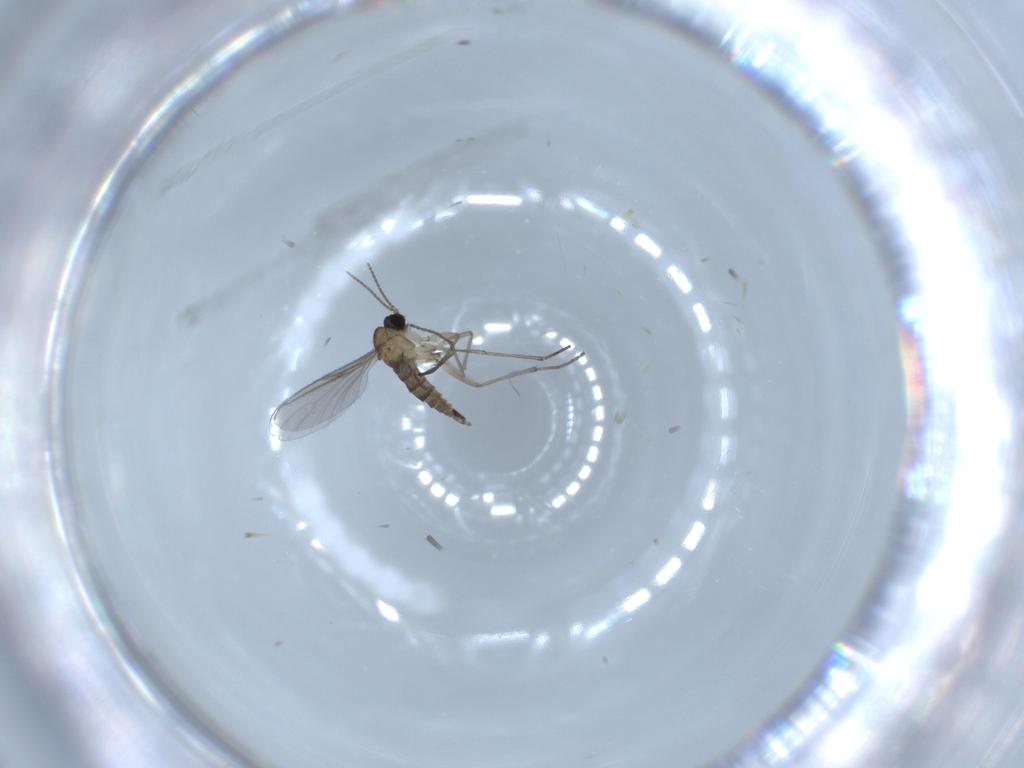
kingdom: Animalia
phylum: Arthropoda
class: Insecta
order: Diptera
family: Sciaridae
